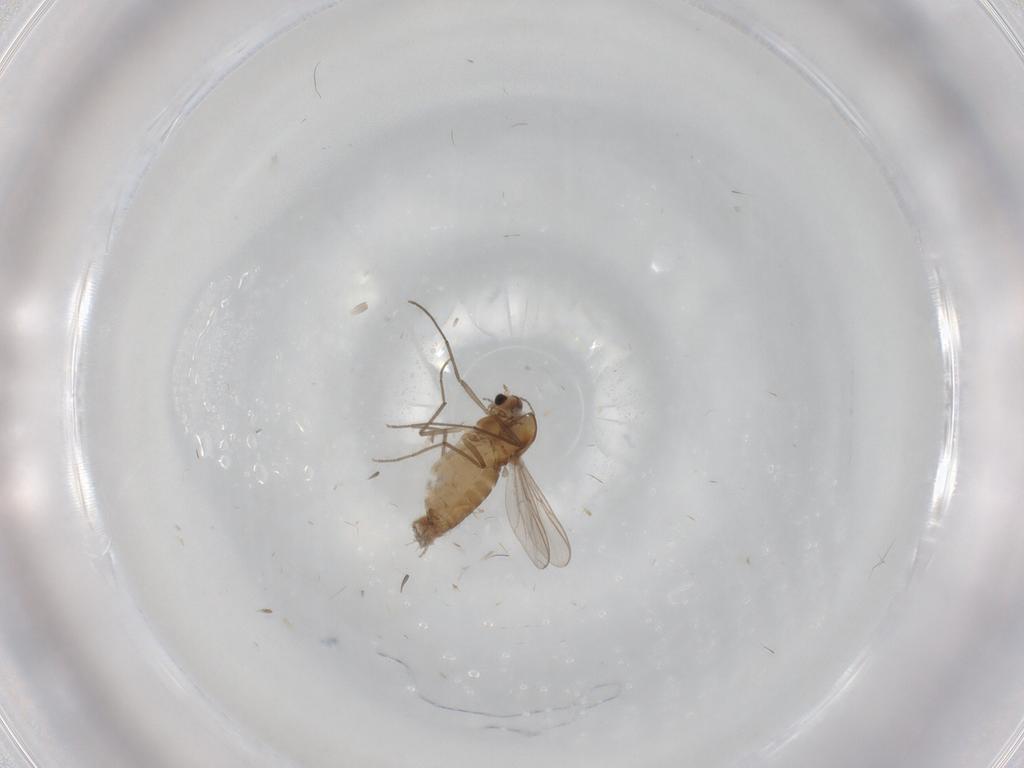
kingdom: Animalia
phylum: Arthropoda
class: Insecta
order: Diptera
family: Chironomidae
